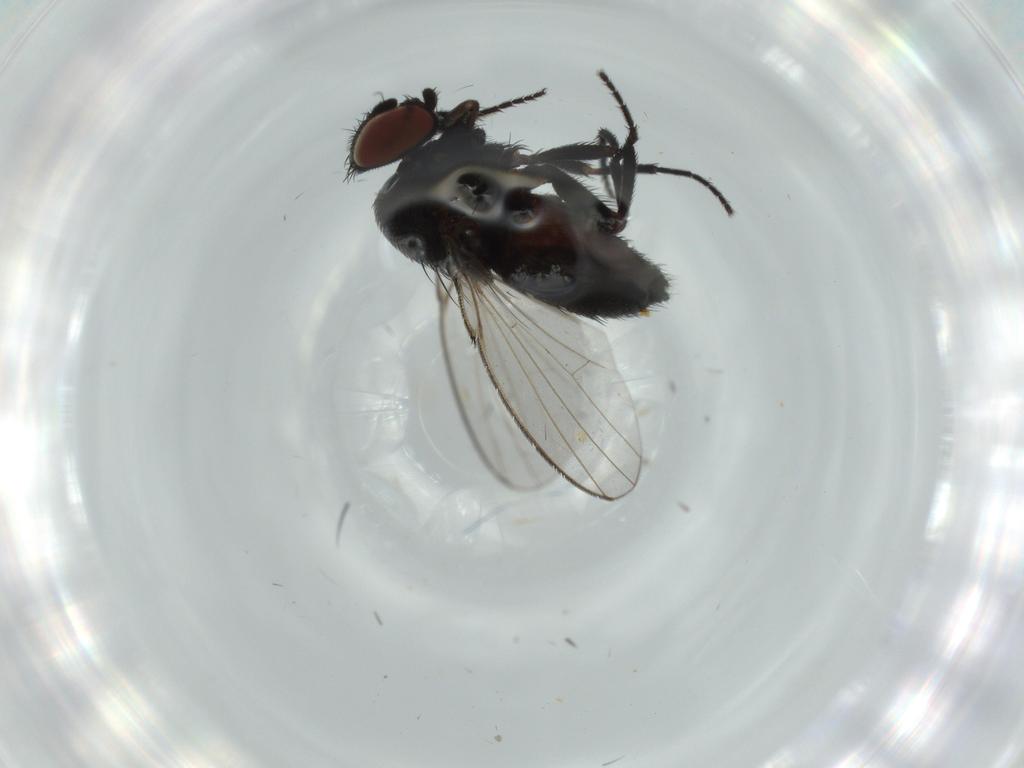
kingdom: Animalia
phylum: Arthropoda
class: Insecta
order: Diptera
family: Milichiidae
